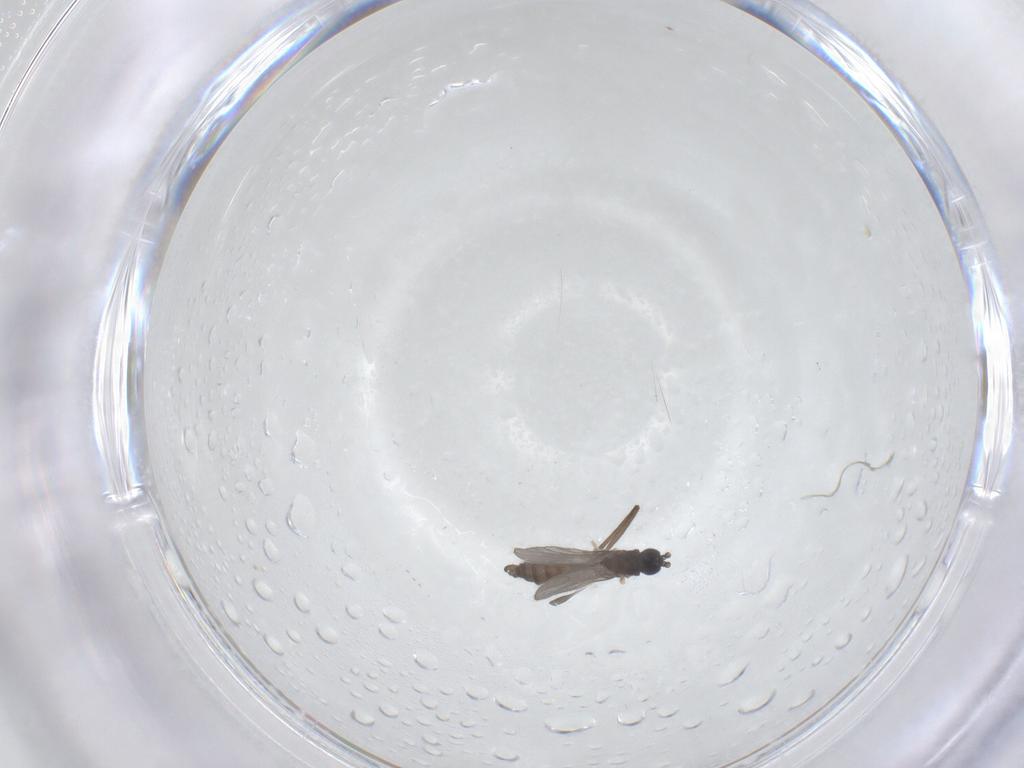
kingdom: Animalia
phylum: Arthropoda
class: Insecta
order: Diptera
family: Sciaridae
